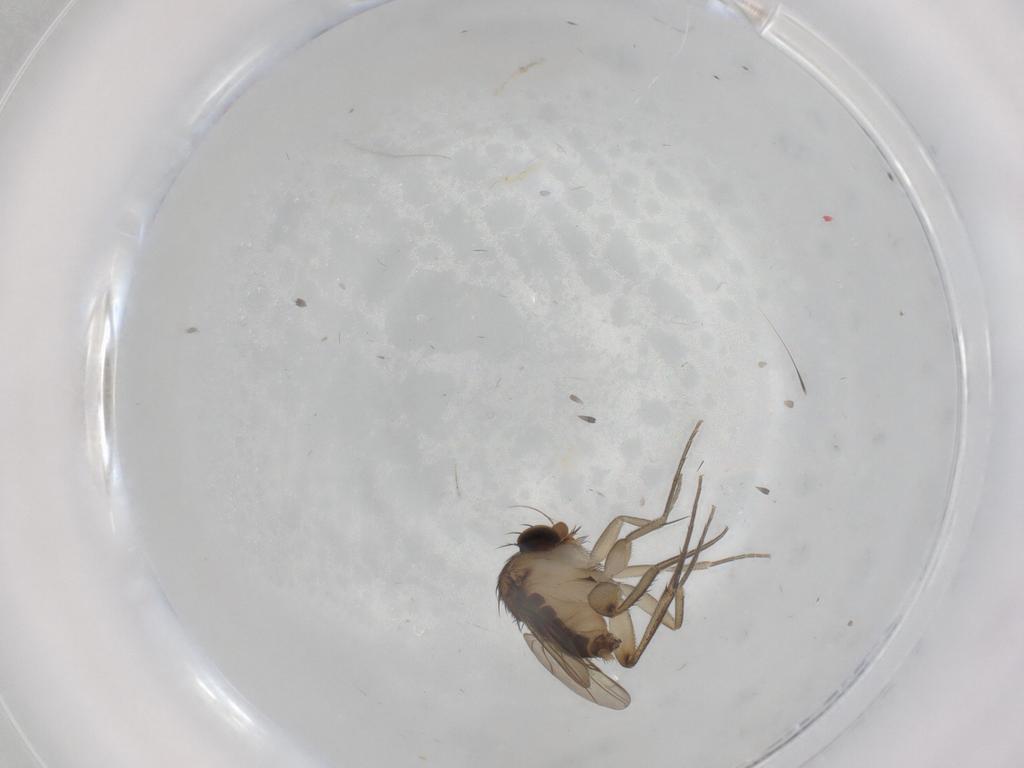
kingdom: Animalia
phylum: Arthropoda
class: Insecta
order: Diptera
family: Phoridae
